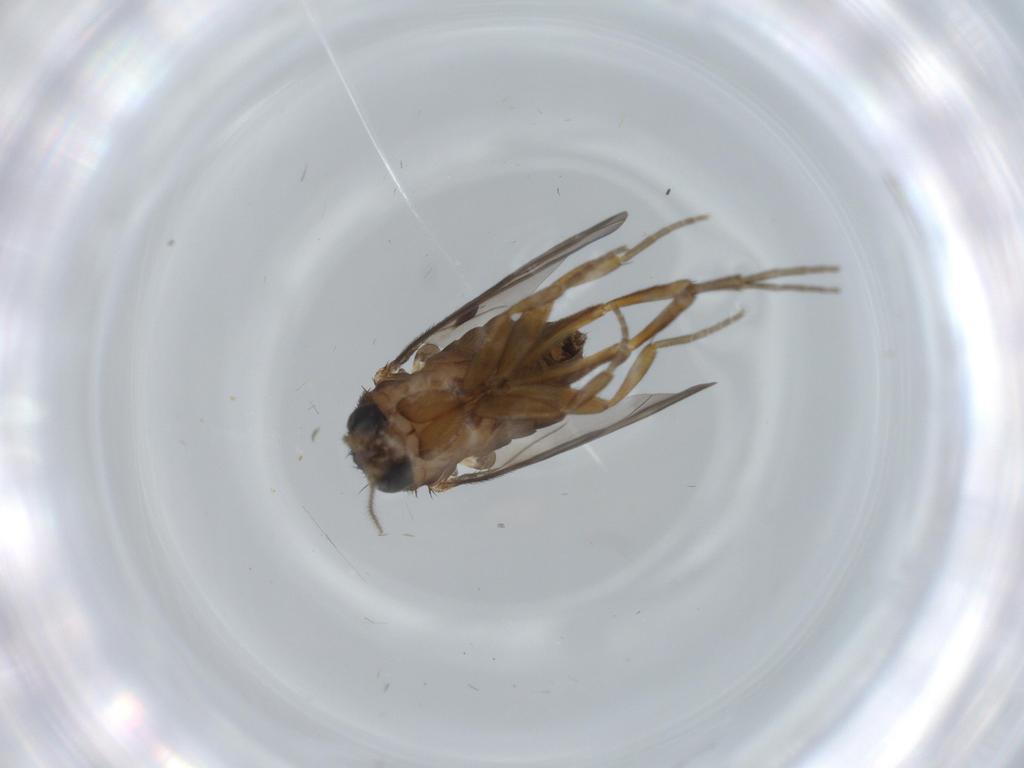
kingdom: Animalia
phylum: Arthropoda
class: Insecta
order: Diptera
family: Sciaridae
